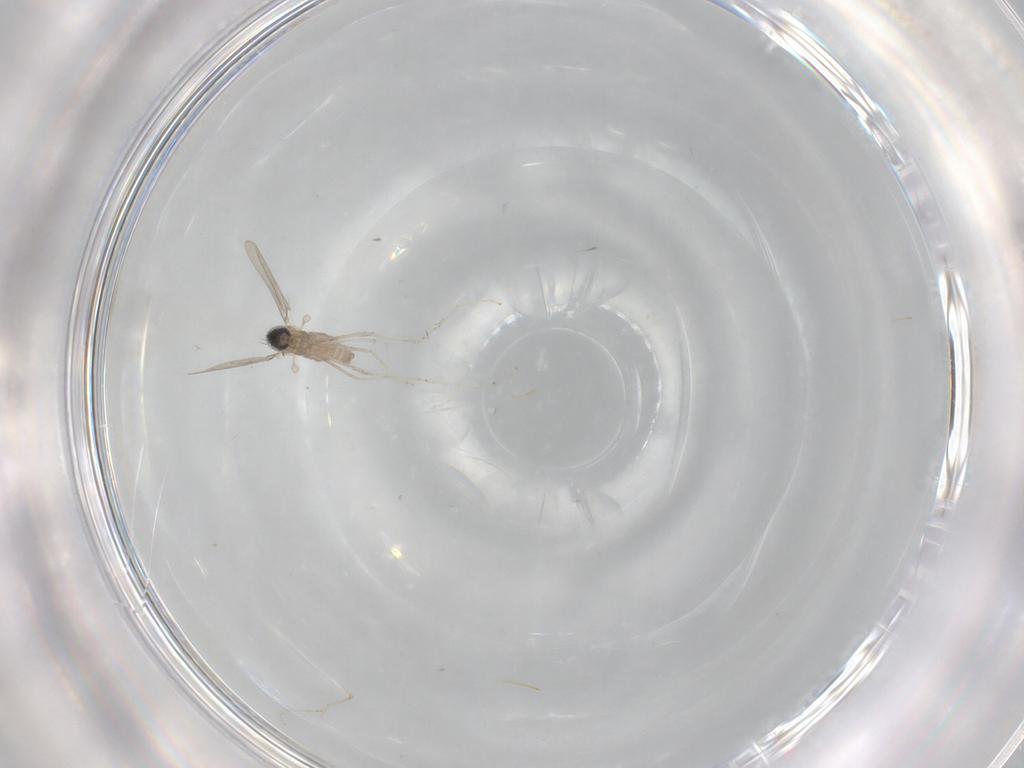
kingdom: Animalia
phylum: Arthropoda
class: Insecta
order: Diptera
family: Cecidomyiidae
